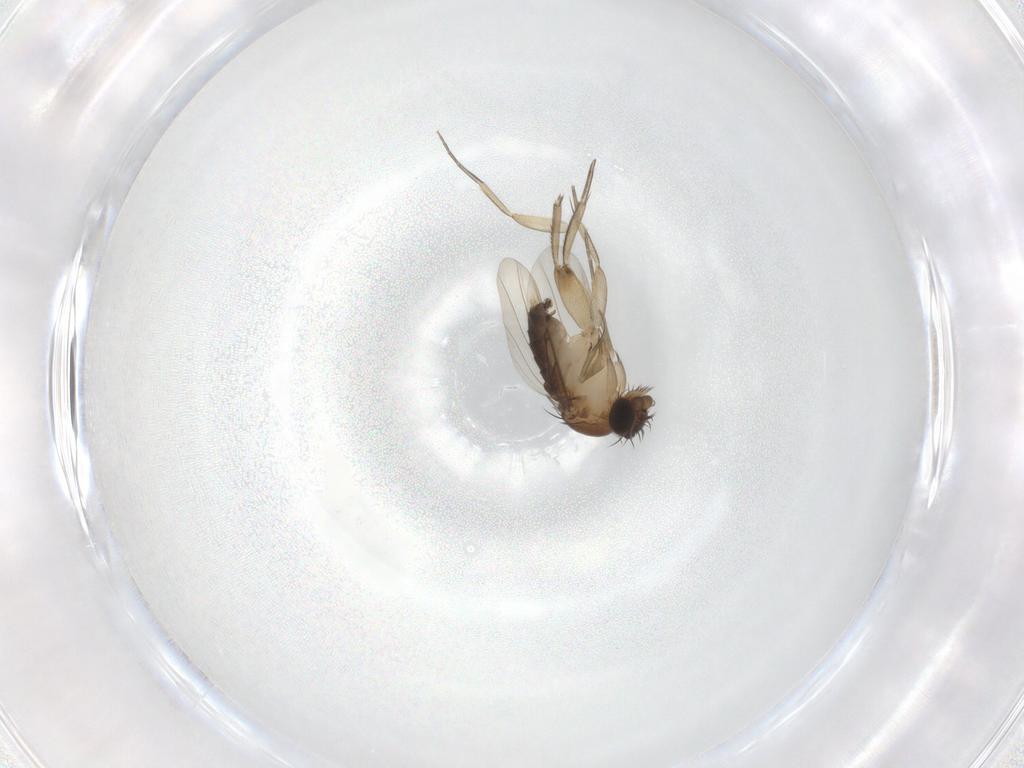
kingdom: Animalia
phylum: Arthropoda
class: Insecta
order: Diptera
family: Phoridae
